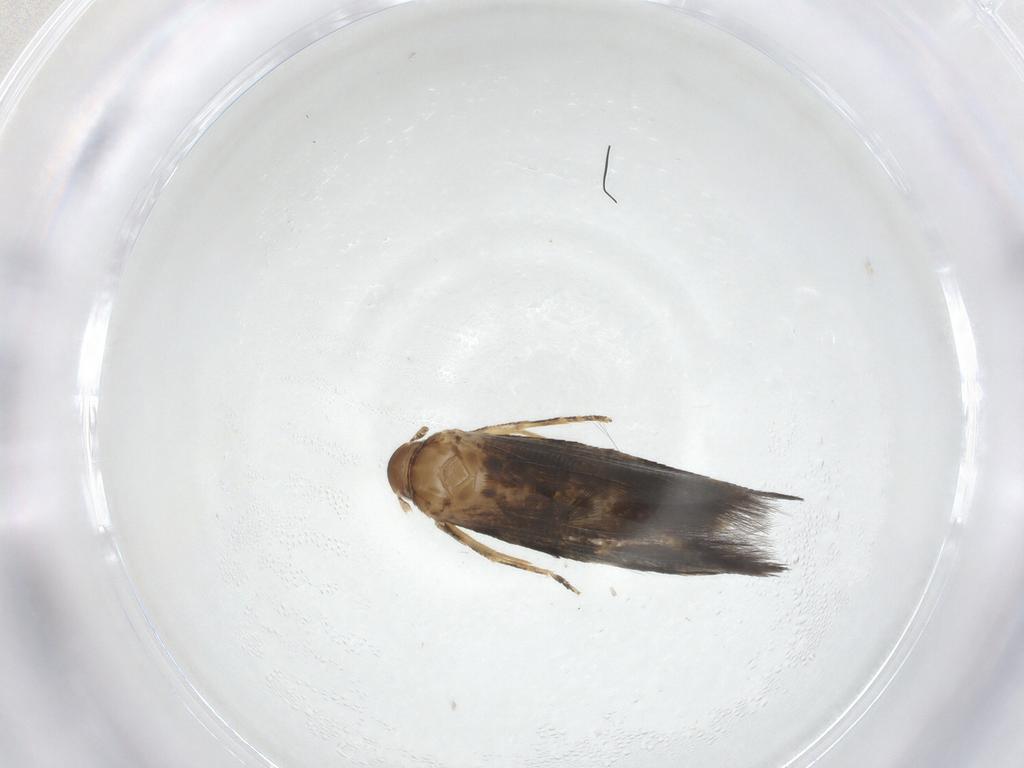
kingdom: Animalia
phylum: Arthropoda
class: Insecta
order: Lepidoptera
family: Momphidae
